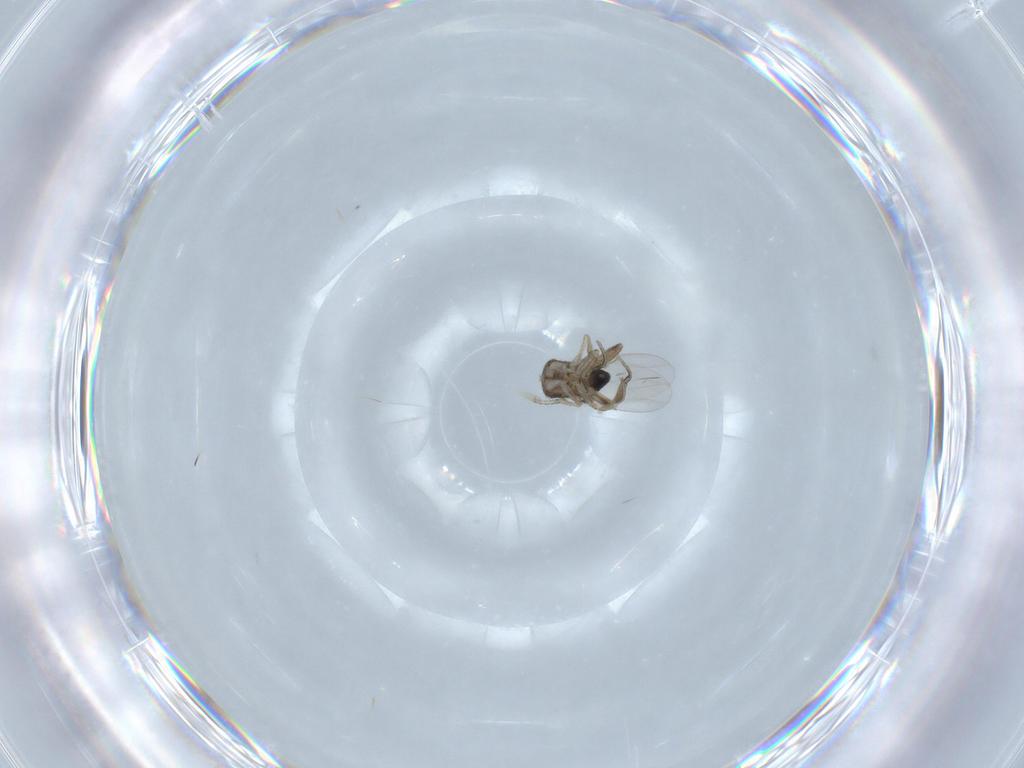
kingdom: Animalia
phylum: Arthropoda
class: Insecta
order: Diptera
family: Phoridae
